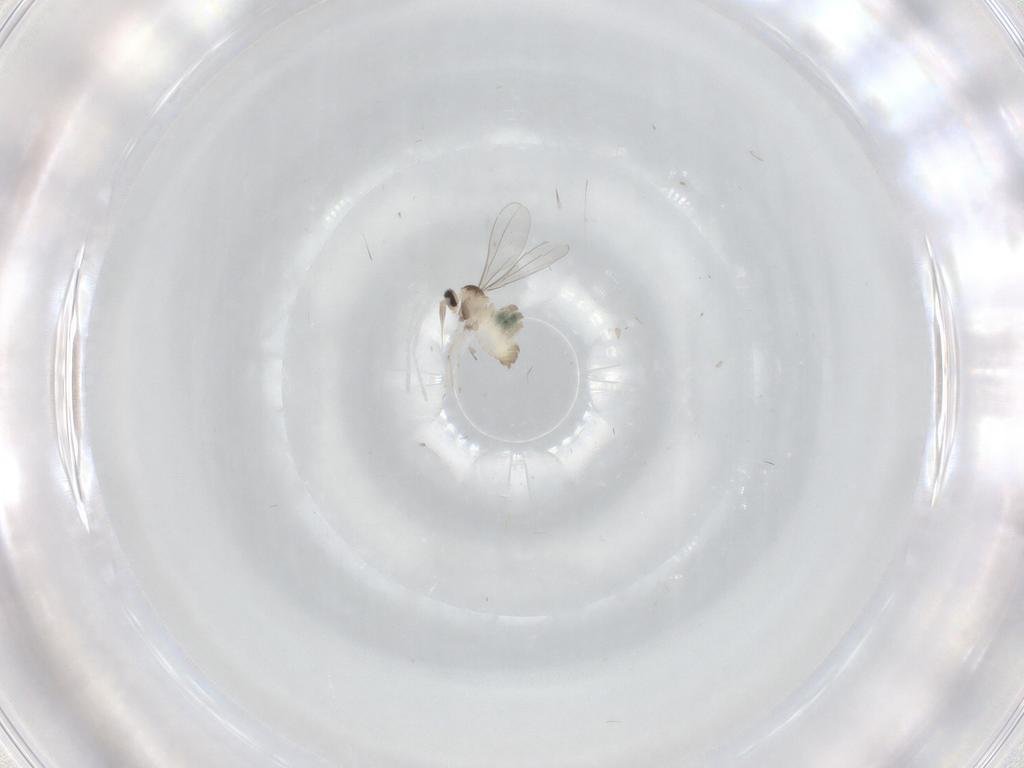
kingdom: Animalia
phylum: Arthropoda
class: Insecta
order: Diptera
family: Cecidomyiidae
